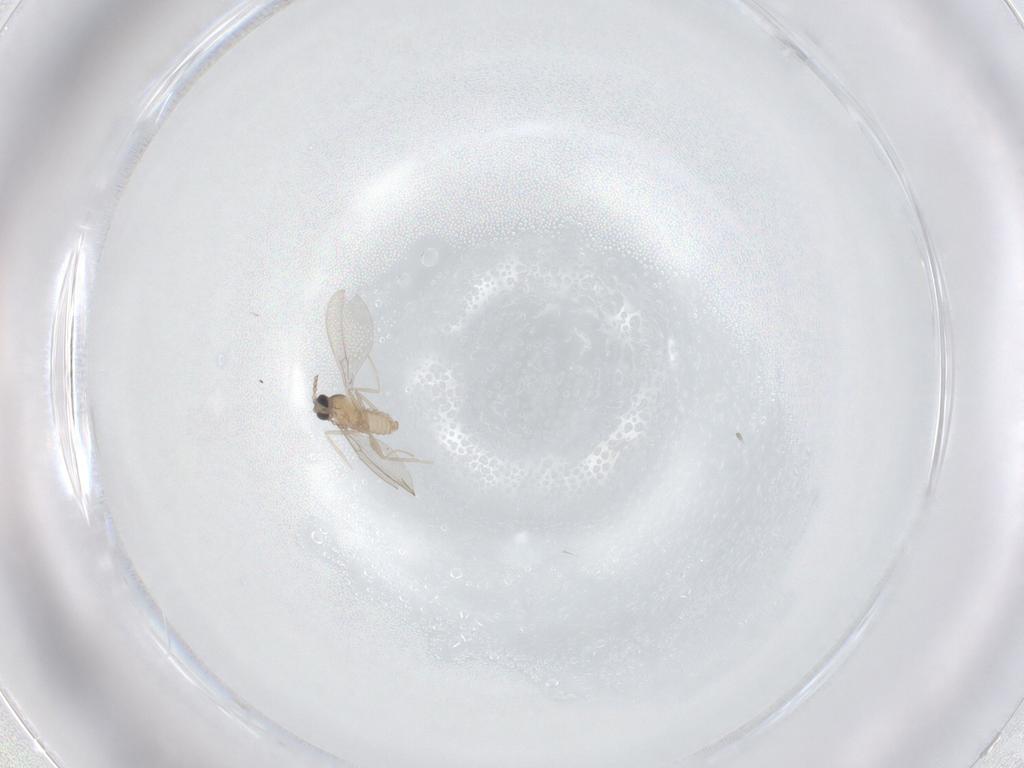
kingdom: Animalia
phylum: Arthropoda
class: Insecta
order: Diptera
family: Cecidomyiidae
